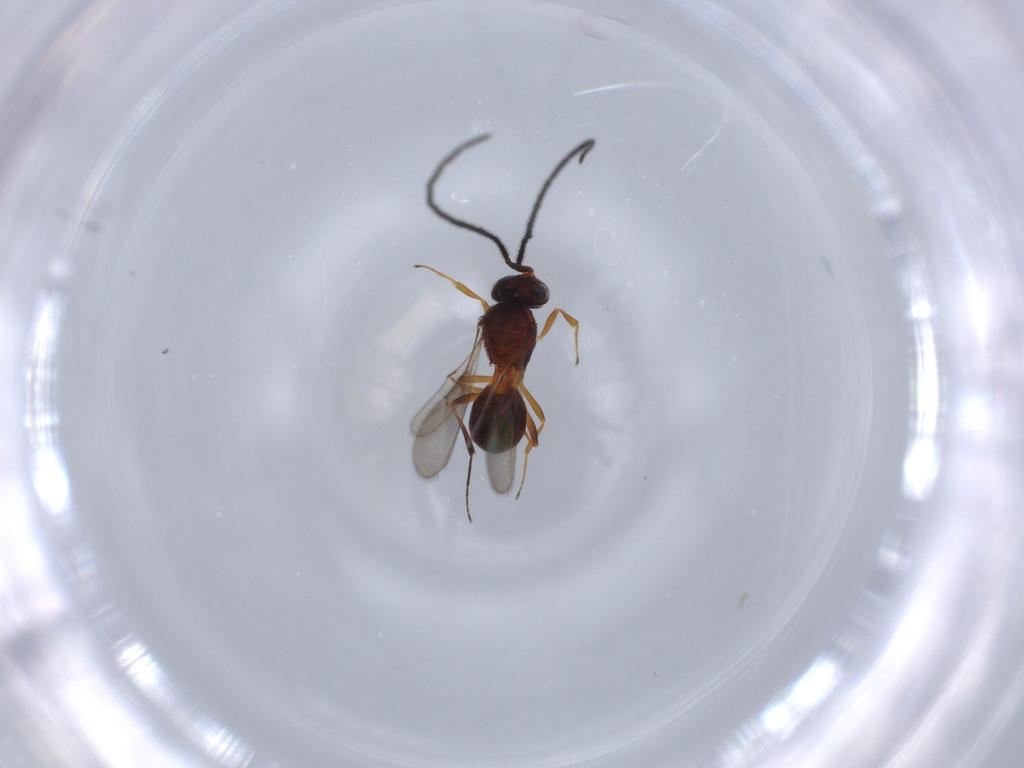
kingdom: Animalia
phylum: Arthropoda
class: Insecta
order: Hymenoptera
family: Scelionidae
